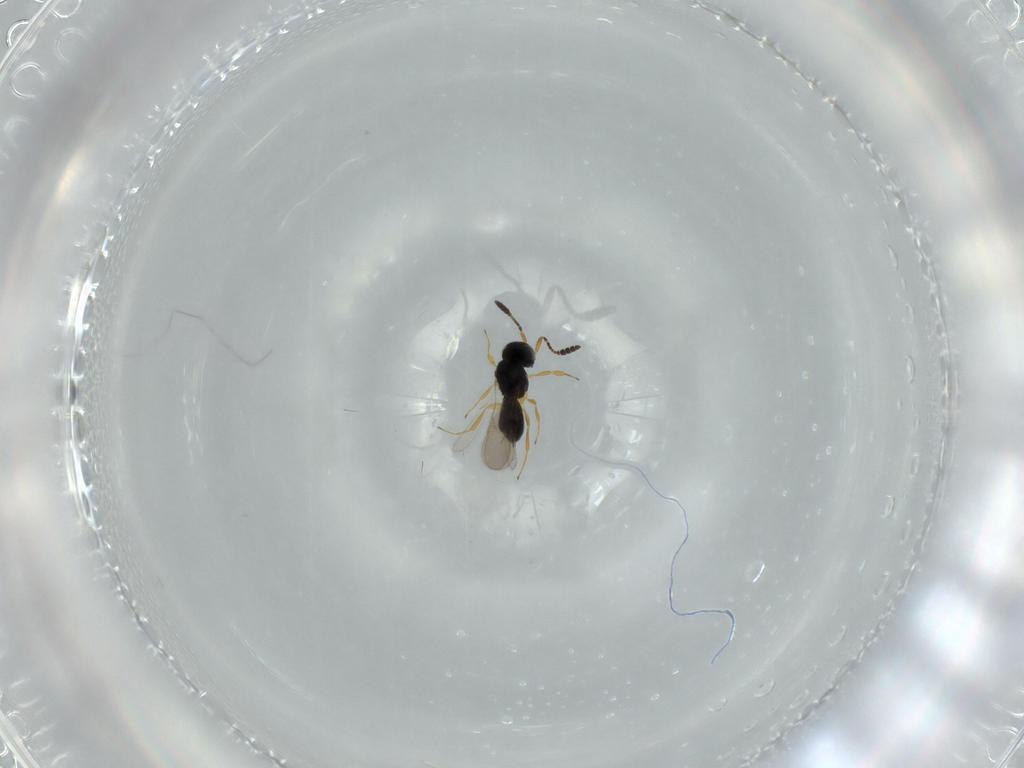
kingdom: Animalia
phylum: Arthropoda
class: Insecta
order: Hymenoptera
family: Scelionidae
